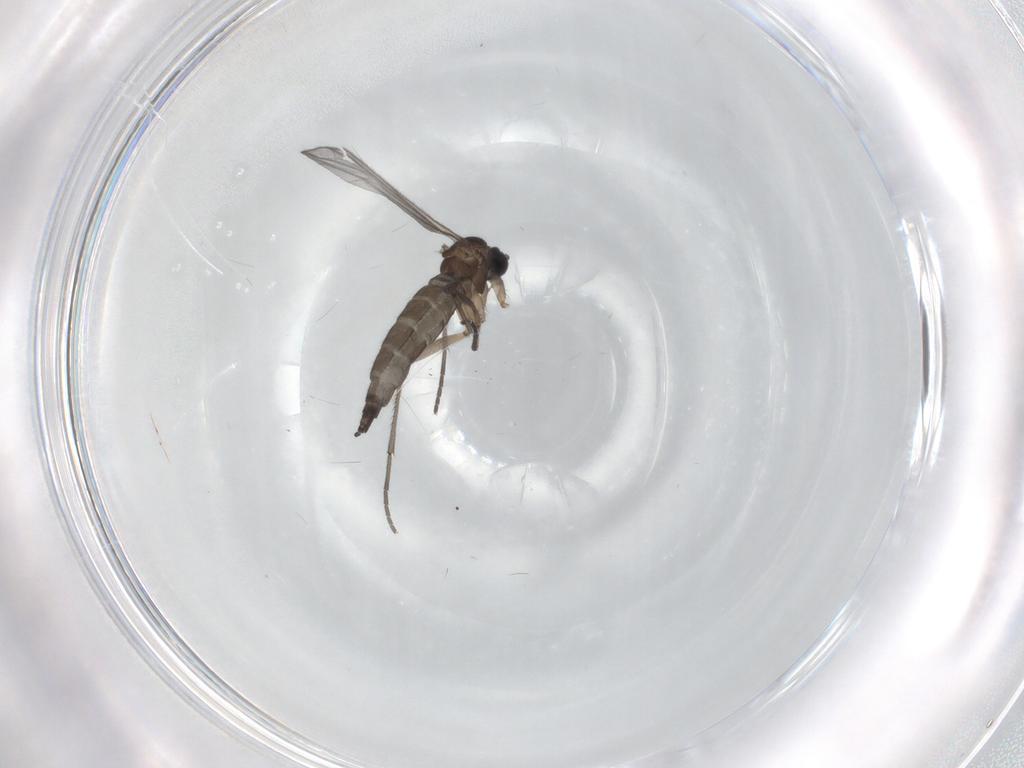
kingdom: Animalia
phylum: Arthropoda
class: Insecta
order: Diptera
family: Sciaridae
